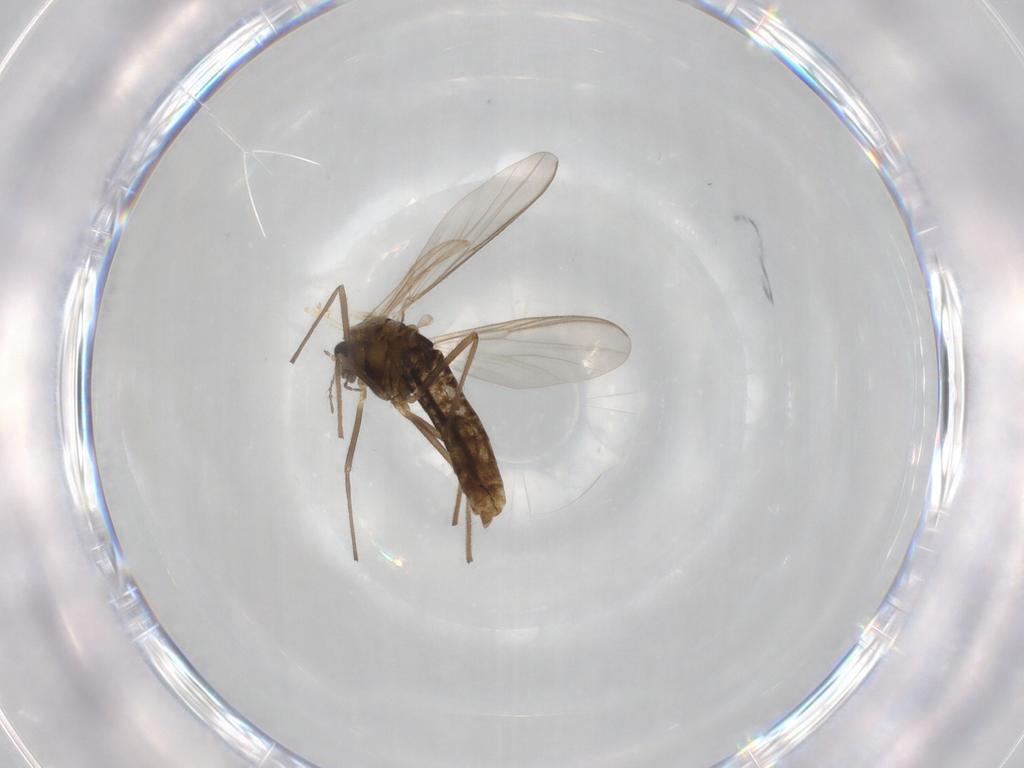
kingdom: Animalia
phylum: Arthropoda
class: Insecta
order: Diptera
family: Chironomidae
